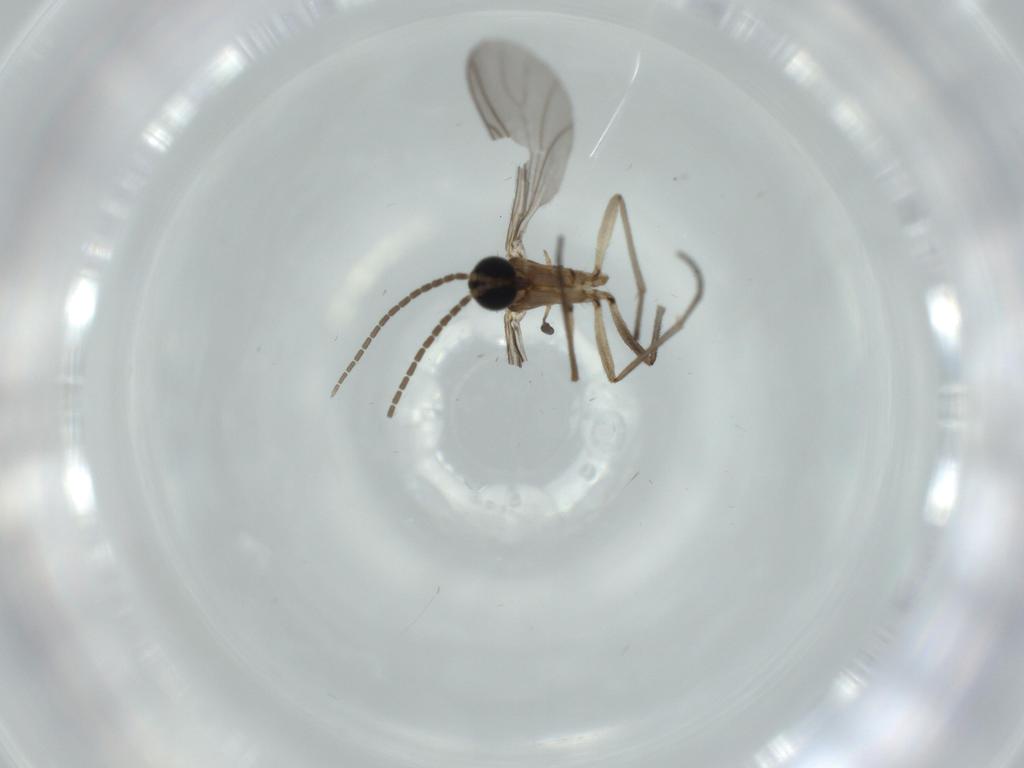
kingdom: Animalia
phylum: Arthropoda
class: Insecta
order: Diptera
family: Sciaridae
